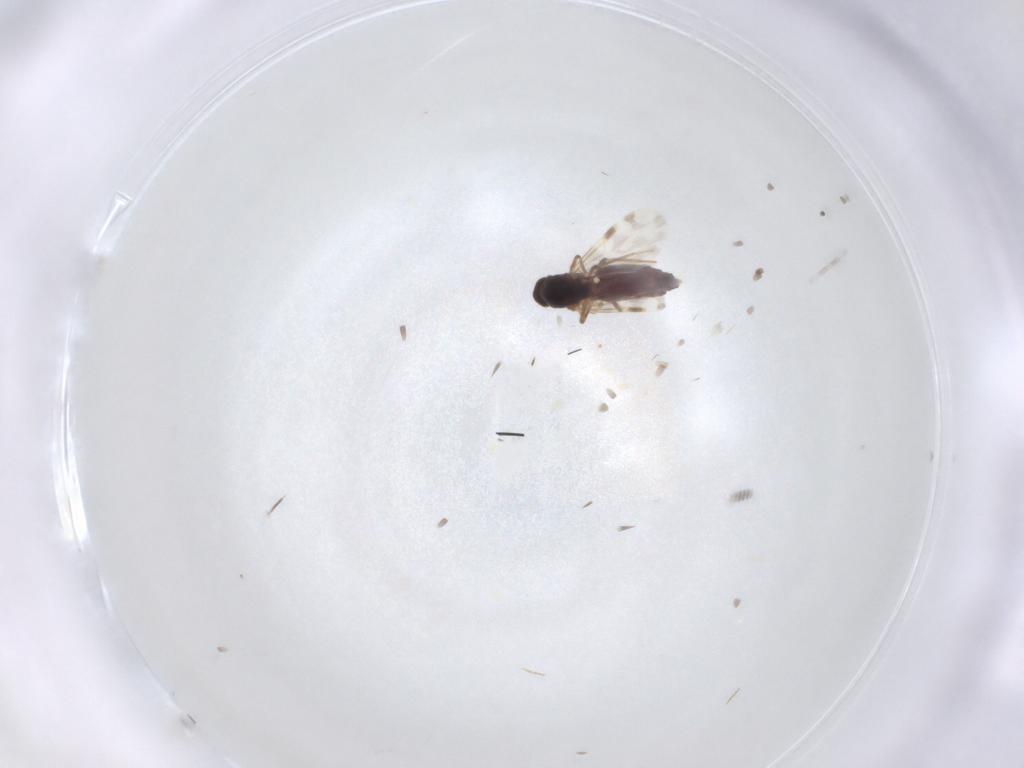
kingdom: Animalia
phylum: Arthropoda
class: Insecta
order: Diptera
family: Ceratopogonidae
